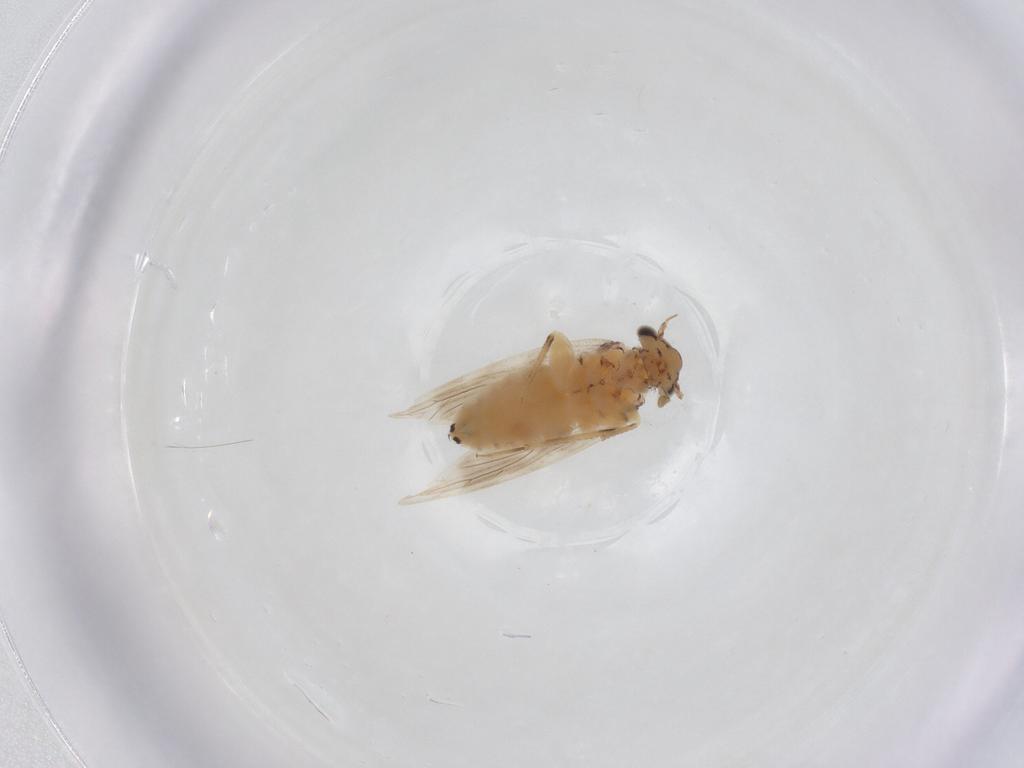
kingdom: Animalia
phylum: Arthropoda
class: Insecta
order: Psocodea
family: Lepidopsocidae
